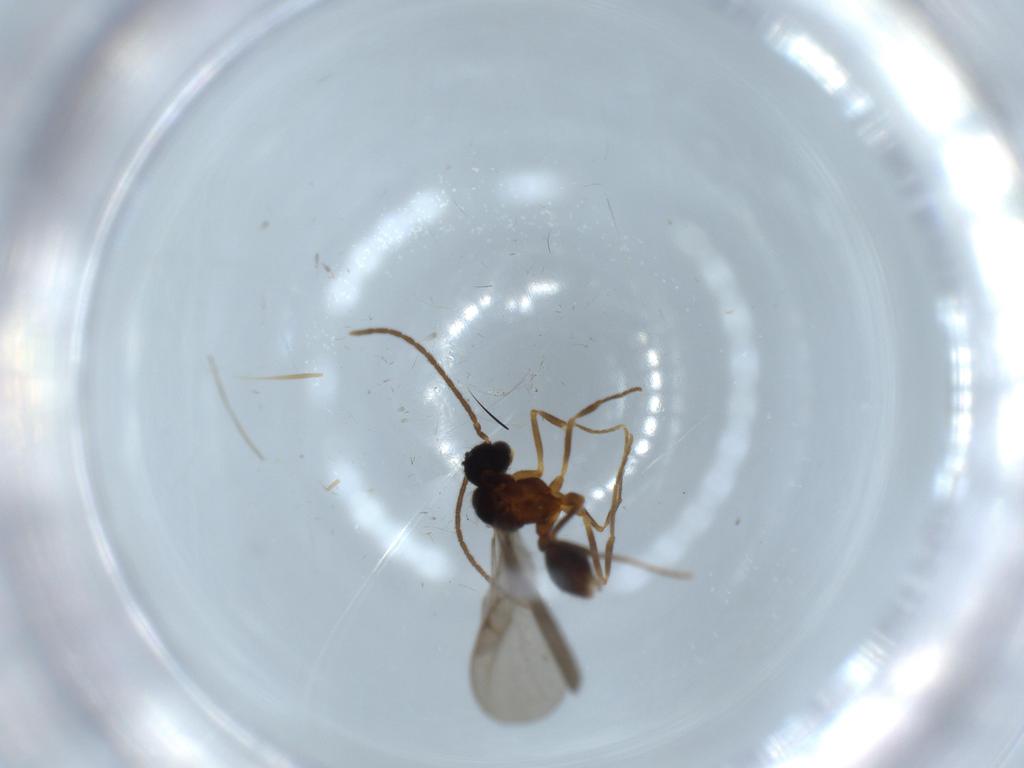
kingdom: Animalia
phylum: Arthropoda
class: Insecta
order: Hymenoptera
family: Formicidae
